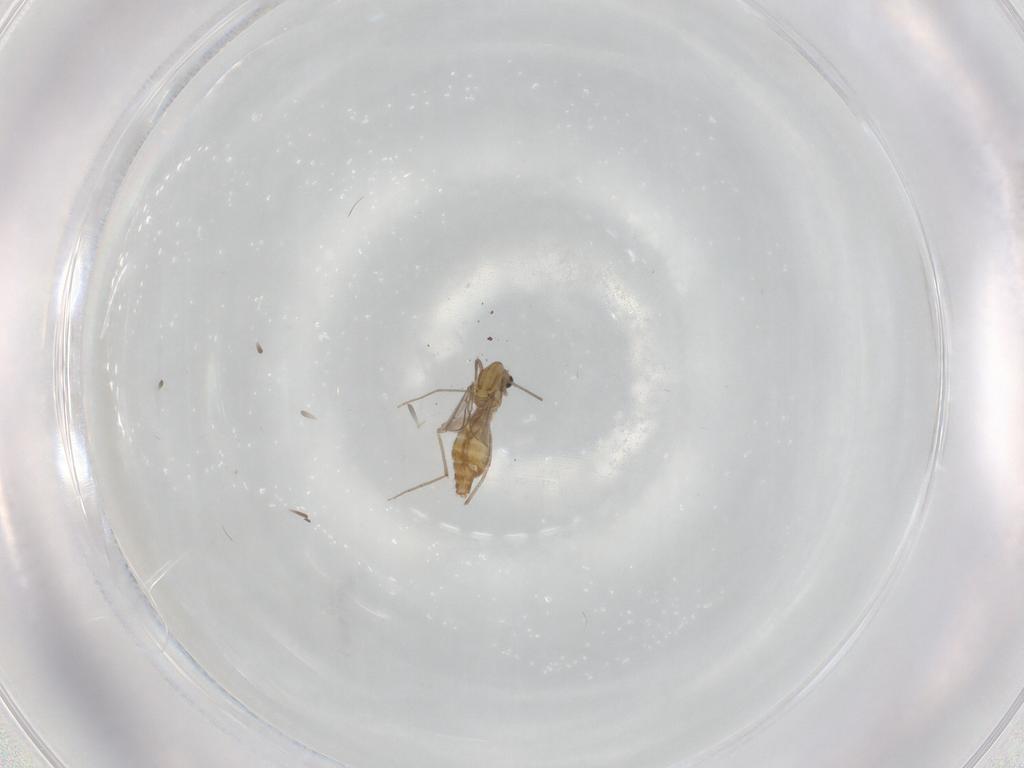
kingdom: Animalia
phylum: Arthropoda
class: Insecta
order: Diptera
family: Chironomidae
